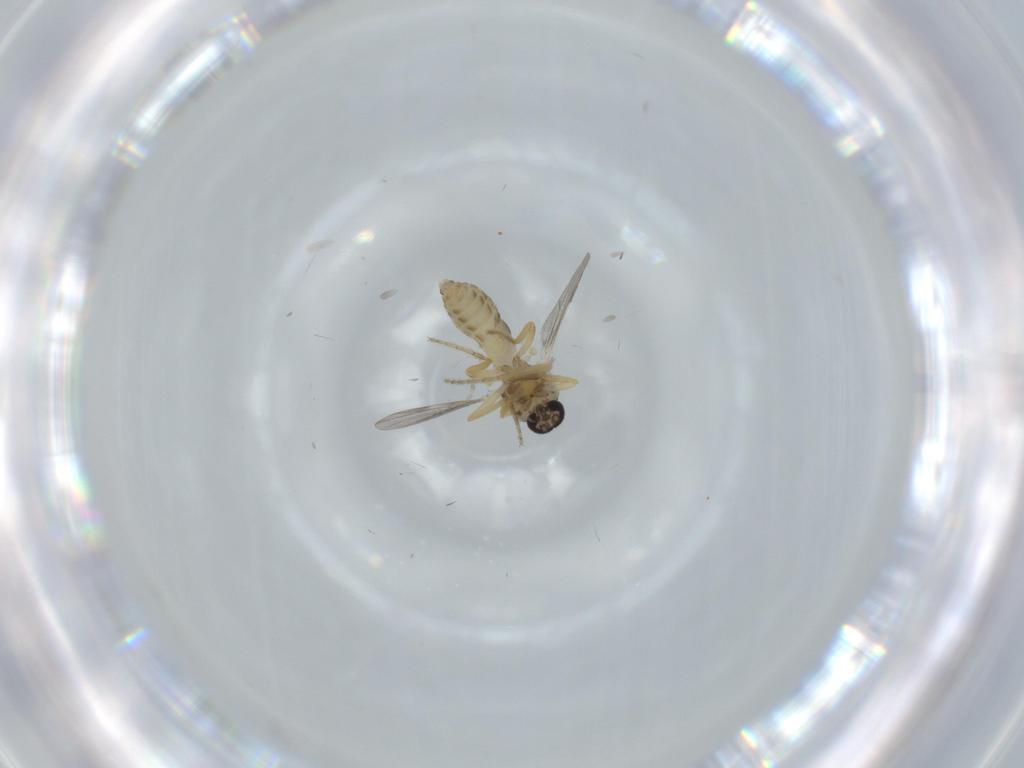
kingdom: Animalia
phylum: Arthropoda
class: Insecta
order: Diptera
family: Ceratopogonidae
